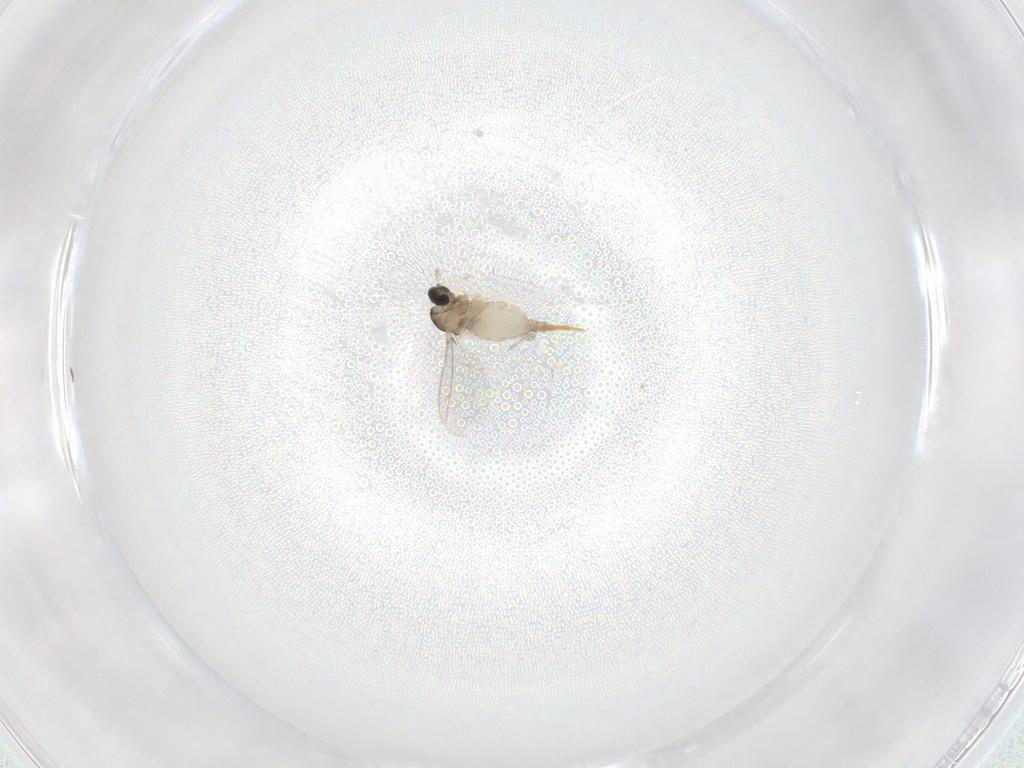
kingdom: Animalia
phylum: Arthropoda
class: Insecta
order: Diptera
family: Cecidomyiidae
